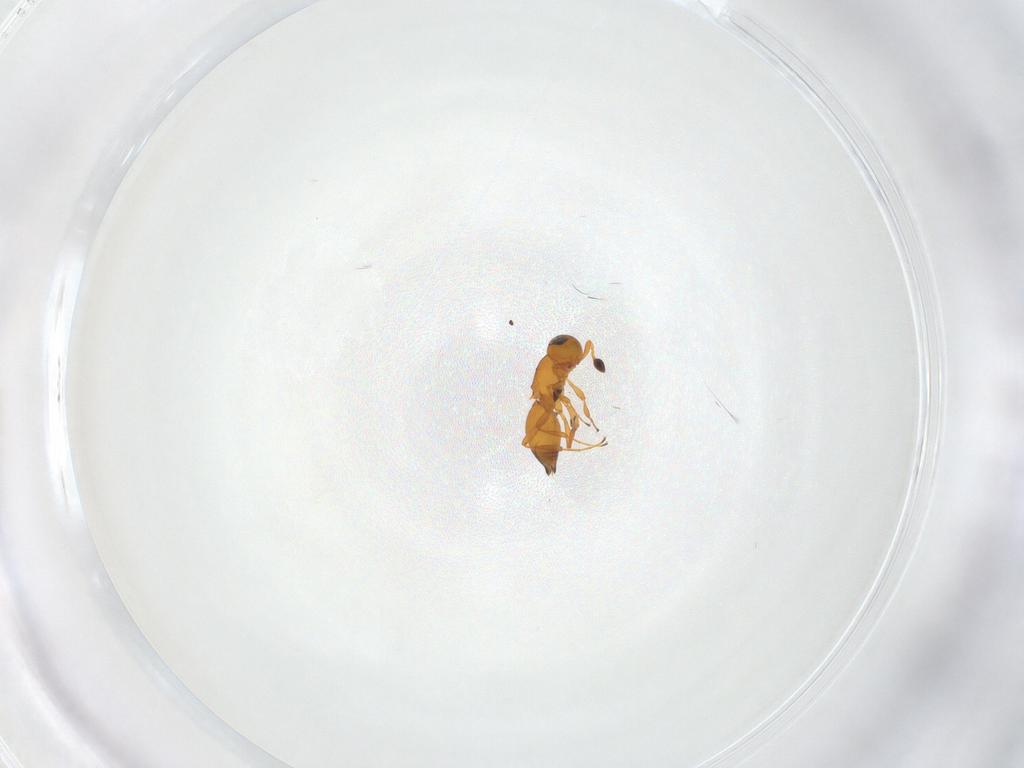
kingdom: Animalia
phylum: Arthropoda
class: Insecta
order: Hymenoptera
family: Platygastridae
